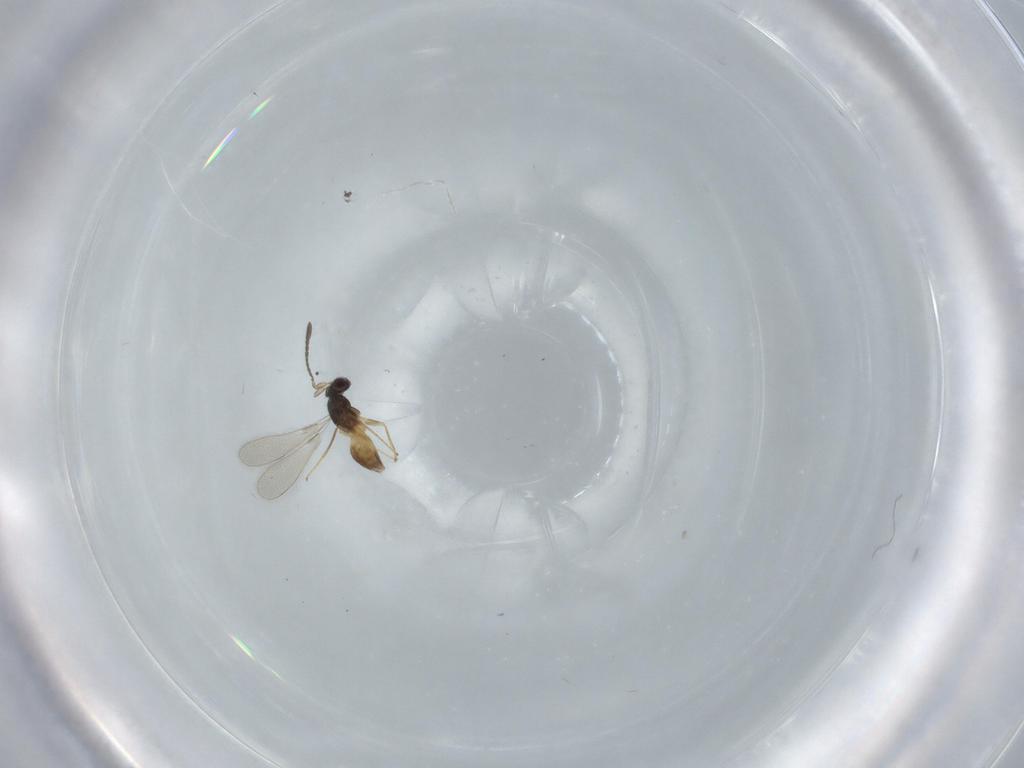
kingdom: Animalia
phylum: Arthropoda
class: Insecta
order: Hymenoptera
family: Mymaridae
